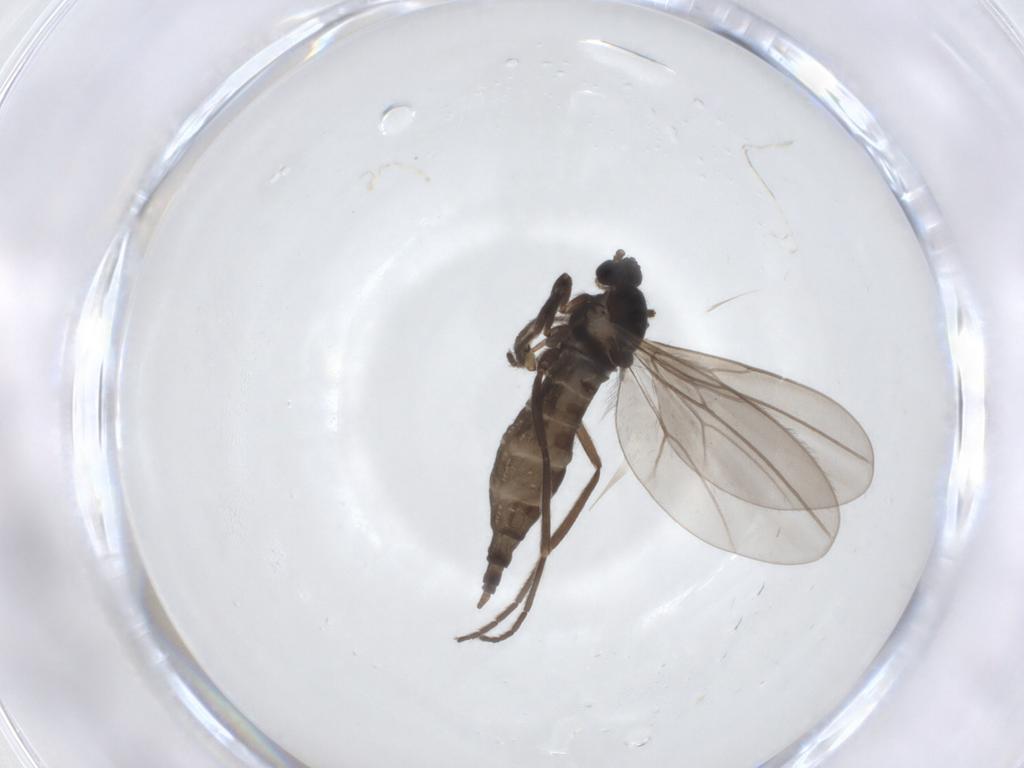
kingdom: Animalia
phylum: Arthropoda
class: Insecta
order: Diptera
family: Cecidomyiidae
